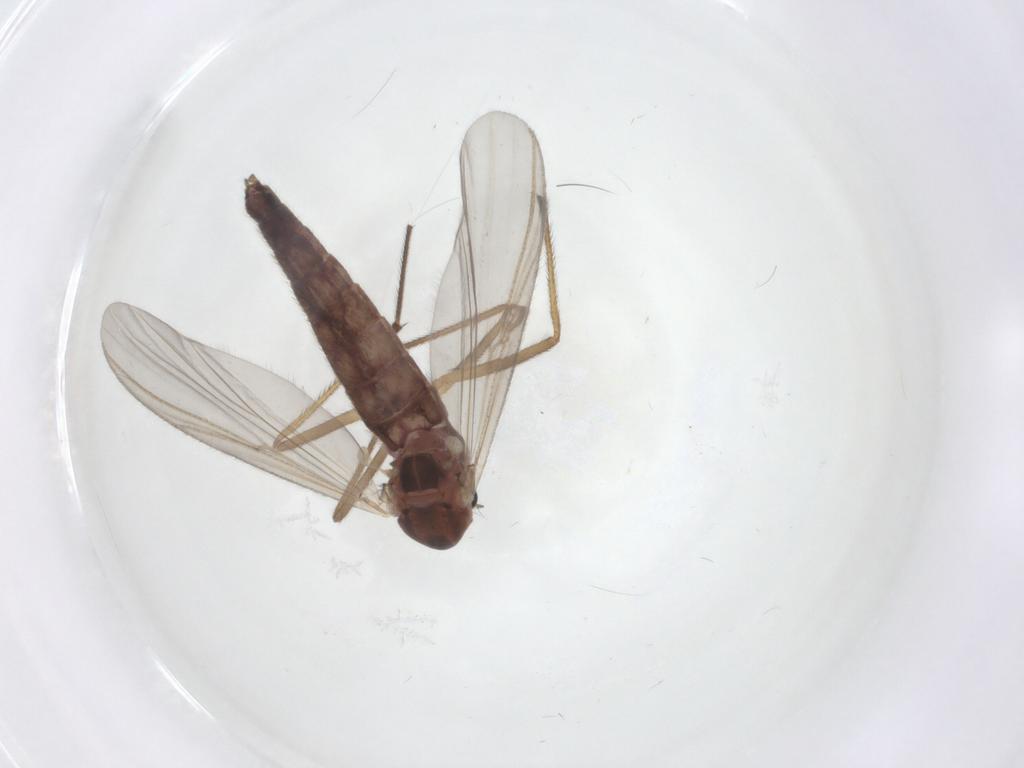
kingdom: Animalia
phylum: Arthropoda
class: Insecta
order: Diptera
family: Chironomidae
